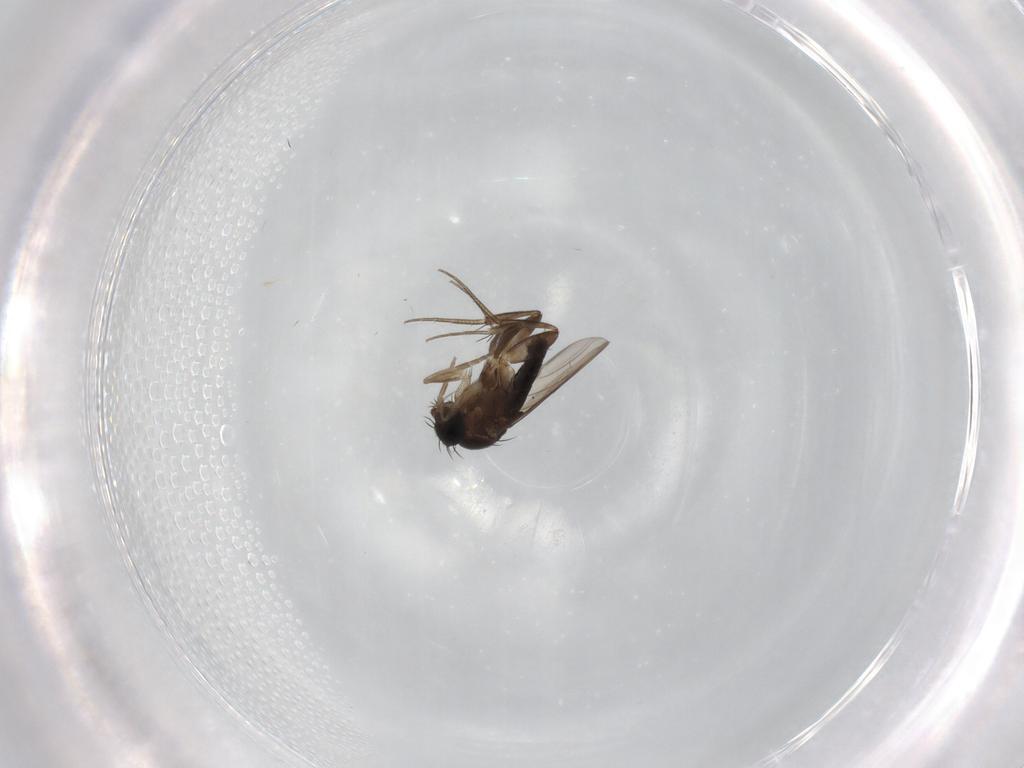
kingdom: Animalia
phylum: Arthropoda
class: Insecta
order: Diptera
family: Phoridae
